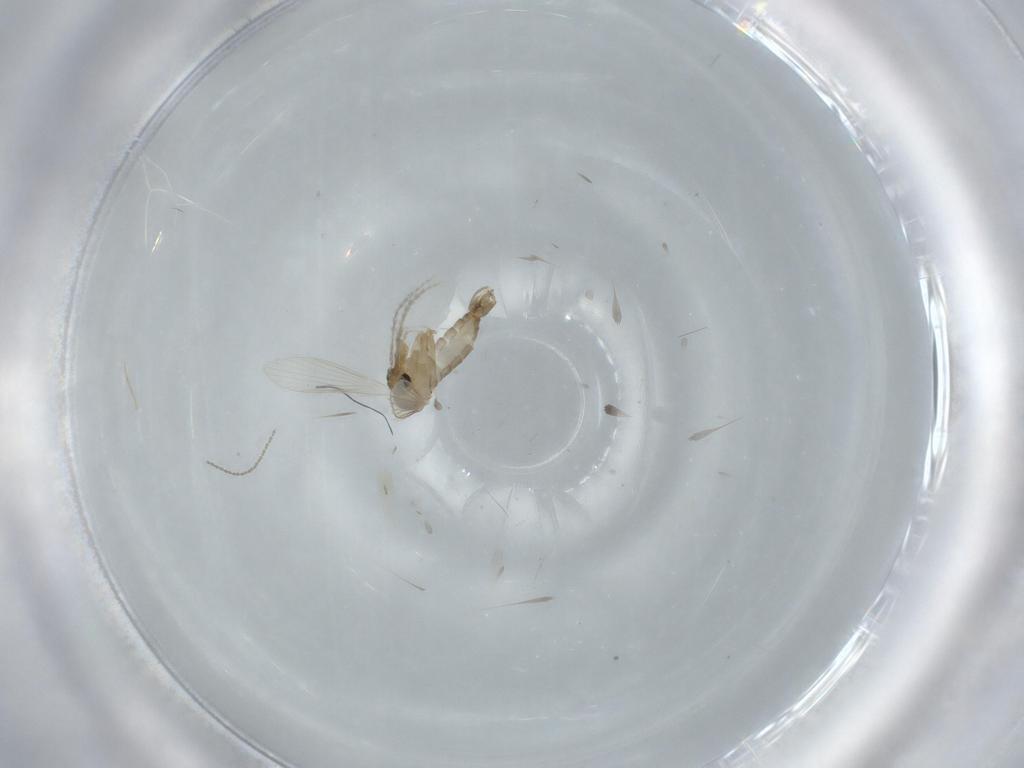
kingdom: Animalia
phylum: Arthropoda
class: Insecta
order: Diptera
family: Psychodidae
